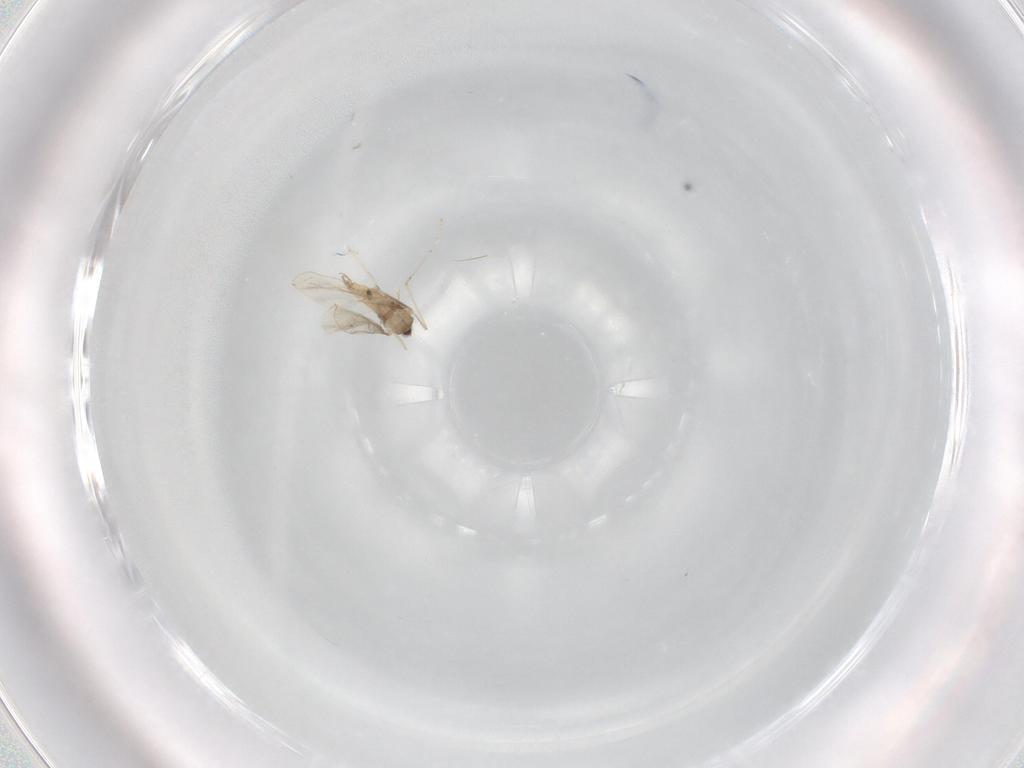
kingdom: Animalia
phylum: Arthropoda
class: Insecta
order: Diptera
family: Cecidomyiidae
